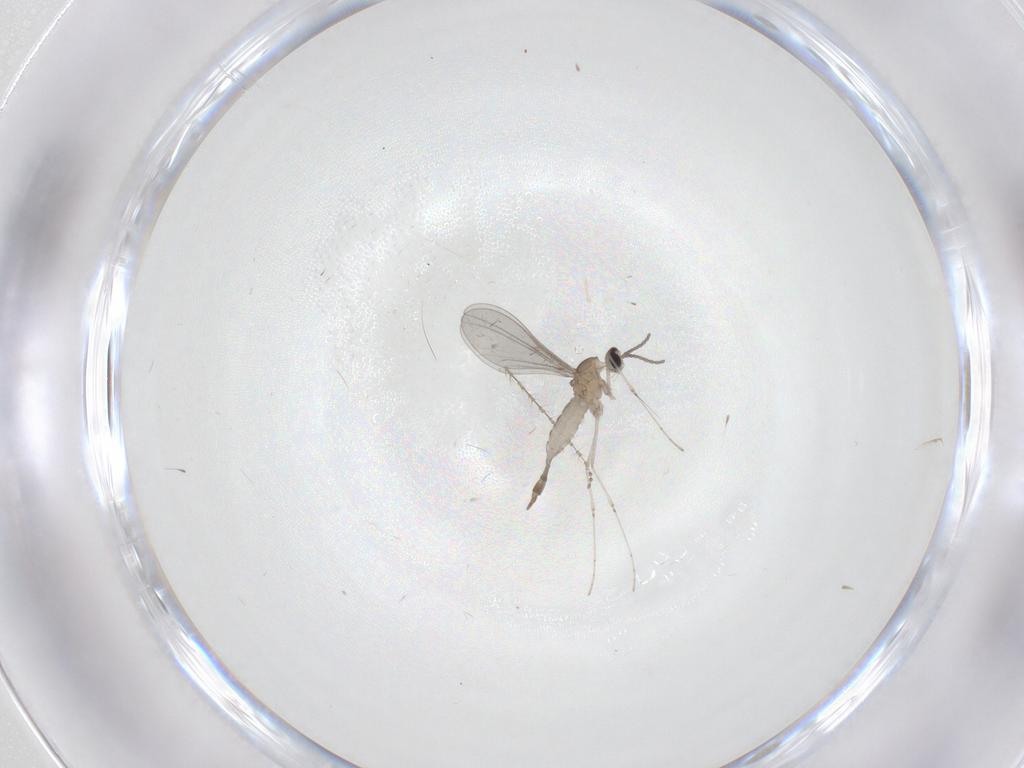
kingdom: Animalia
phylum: Arthropoda
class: Insecta
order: Diptera
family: Cecidomyiidae
